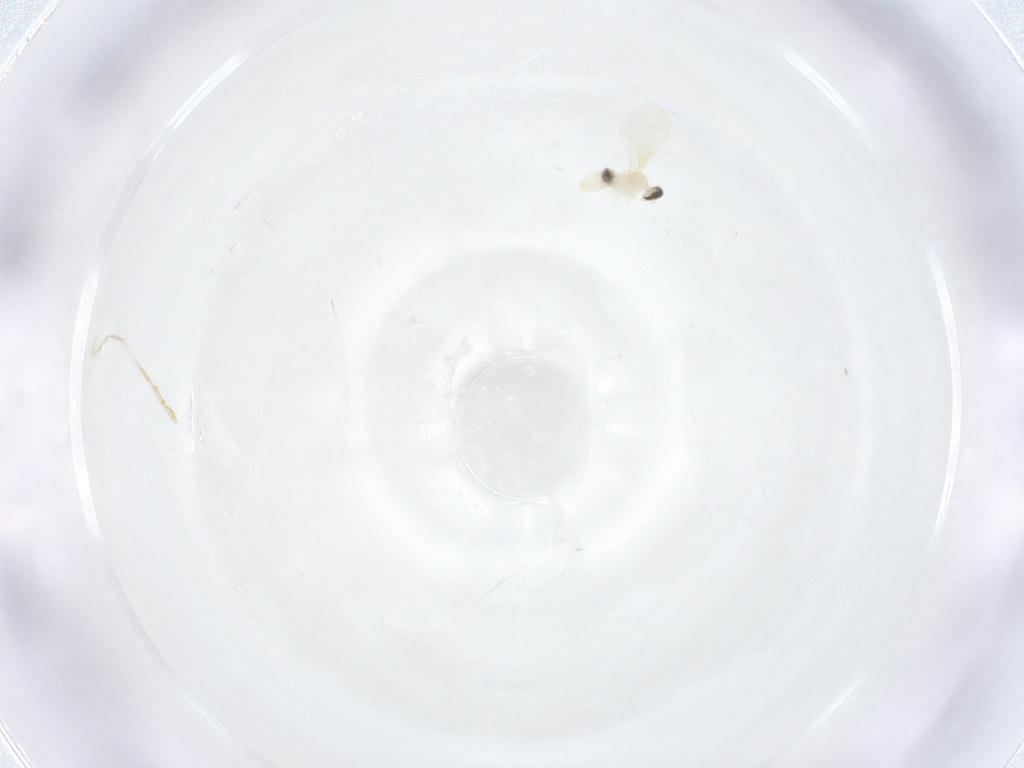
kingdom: Animalia
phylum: Arthropoda
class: Insecta
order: Diptera
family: Cecidomyiidae
